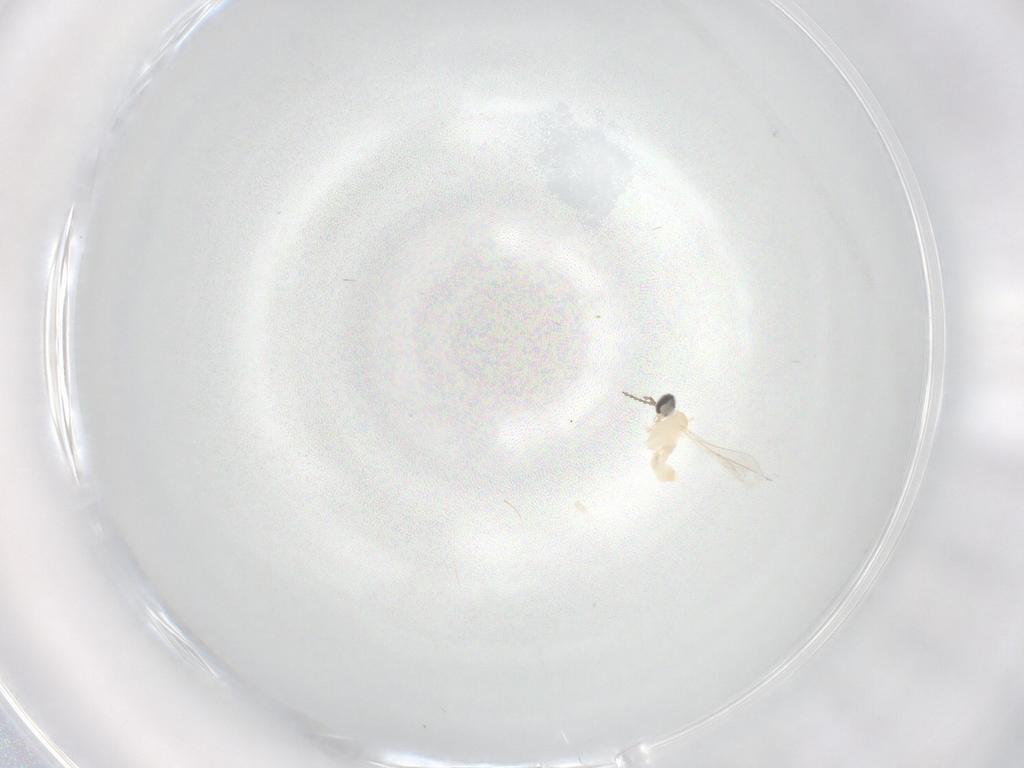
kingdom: Animalia
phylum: Arthropoda
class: Insecta
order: Diptera
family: Cecidomyiidae
